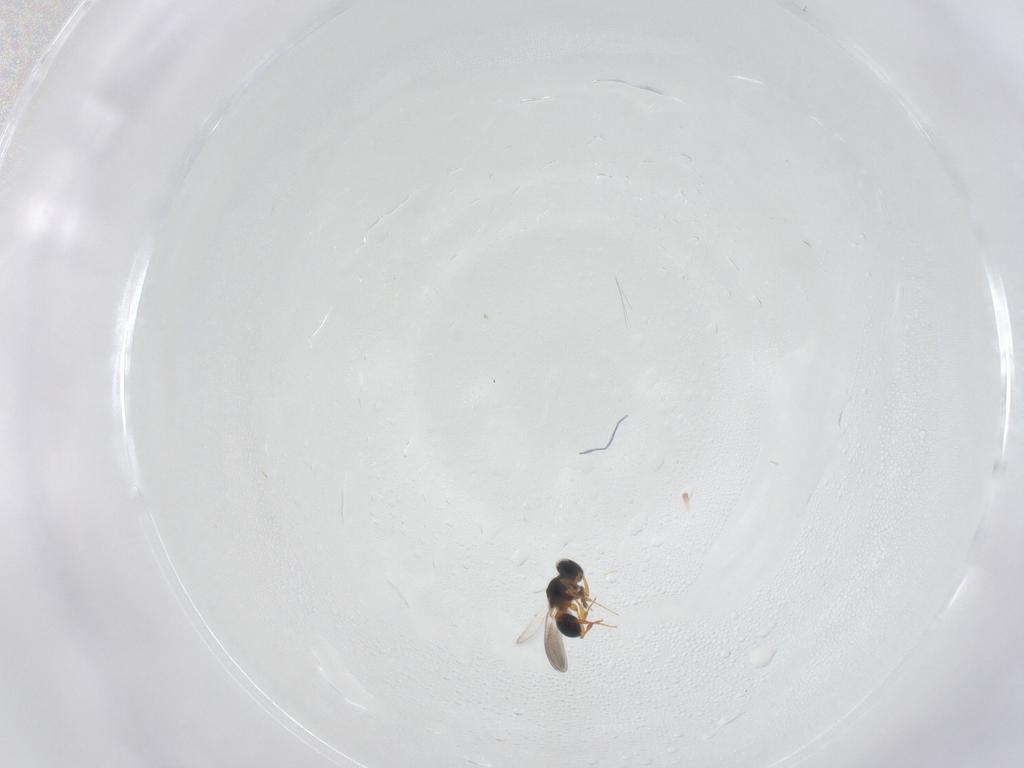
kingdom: Animalia
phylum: Arthropoda
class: Insecta
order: Hymenoptera
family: Platygastridae
